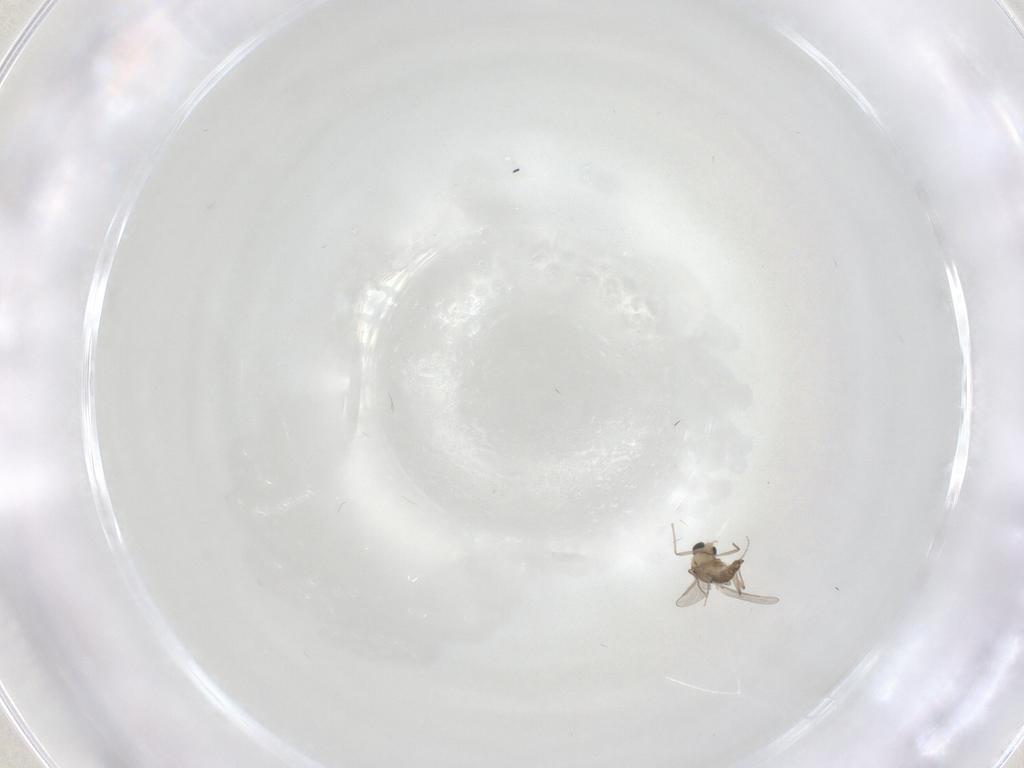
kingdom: Animalia
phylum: Arthropoda
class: Insecta
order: Diptera
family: Chironomidae
